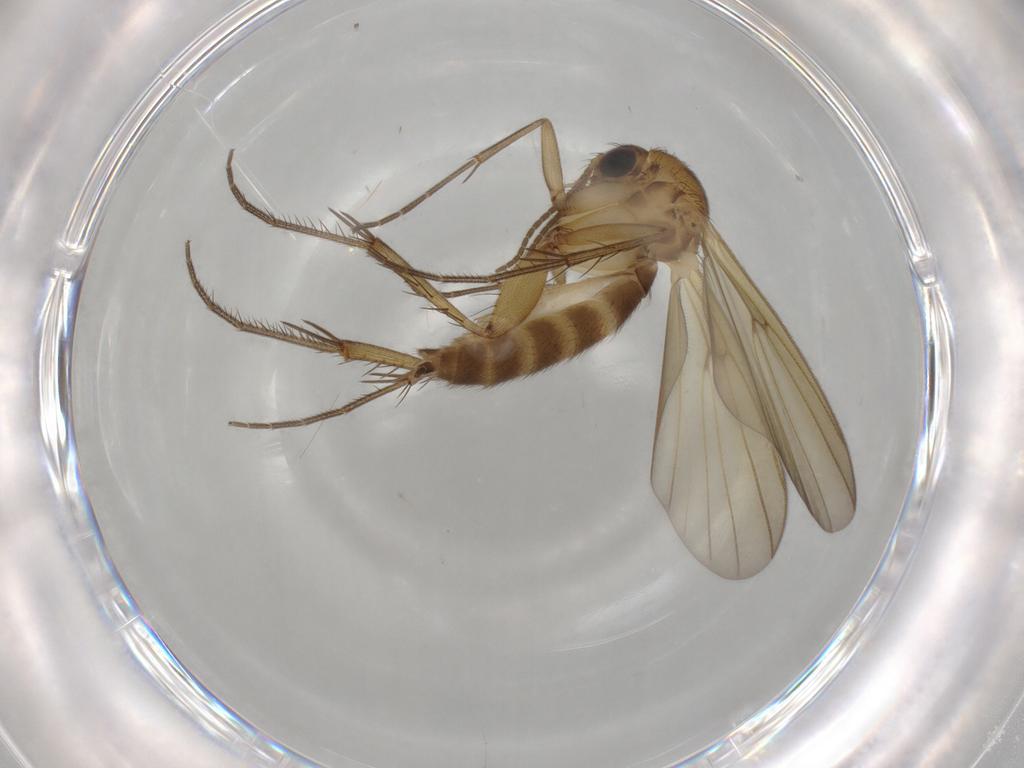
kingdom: Animalia
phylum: Arthropoda
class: Insecta
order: Diptera
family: Mycetophilidae
